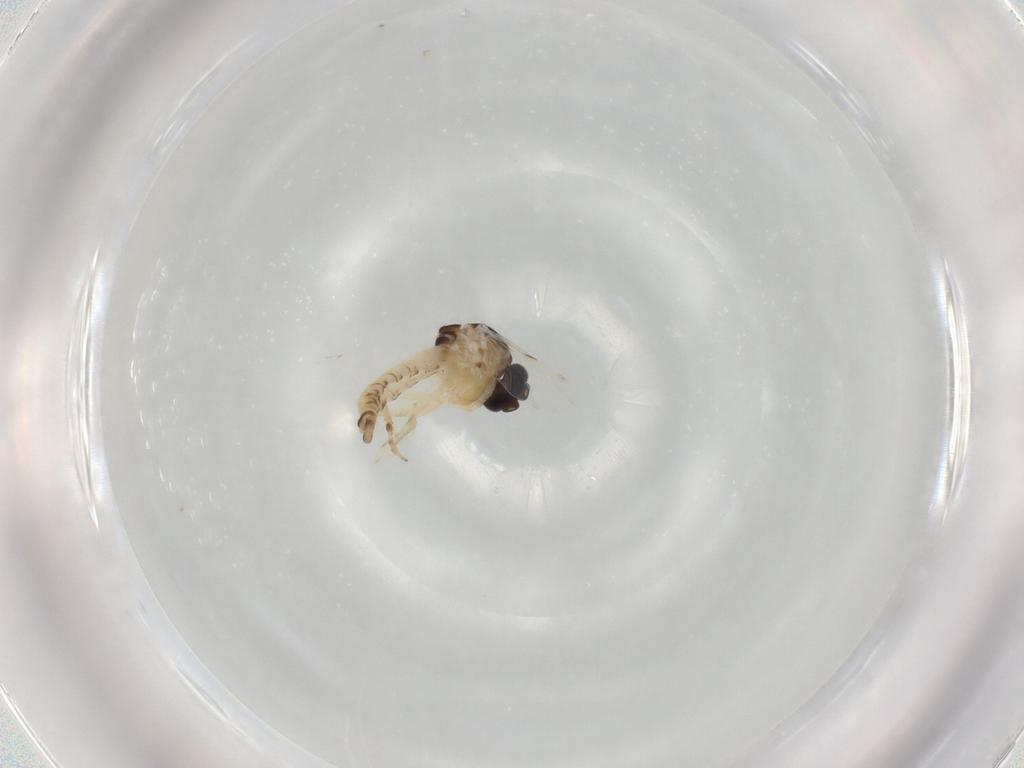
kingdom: Animalia
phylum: Arthropoda
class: Insecta
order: Diptera
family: Ceratopogonidae
